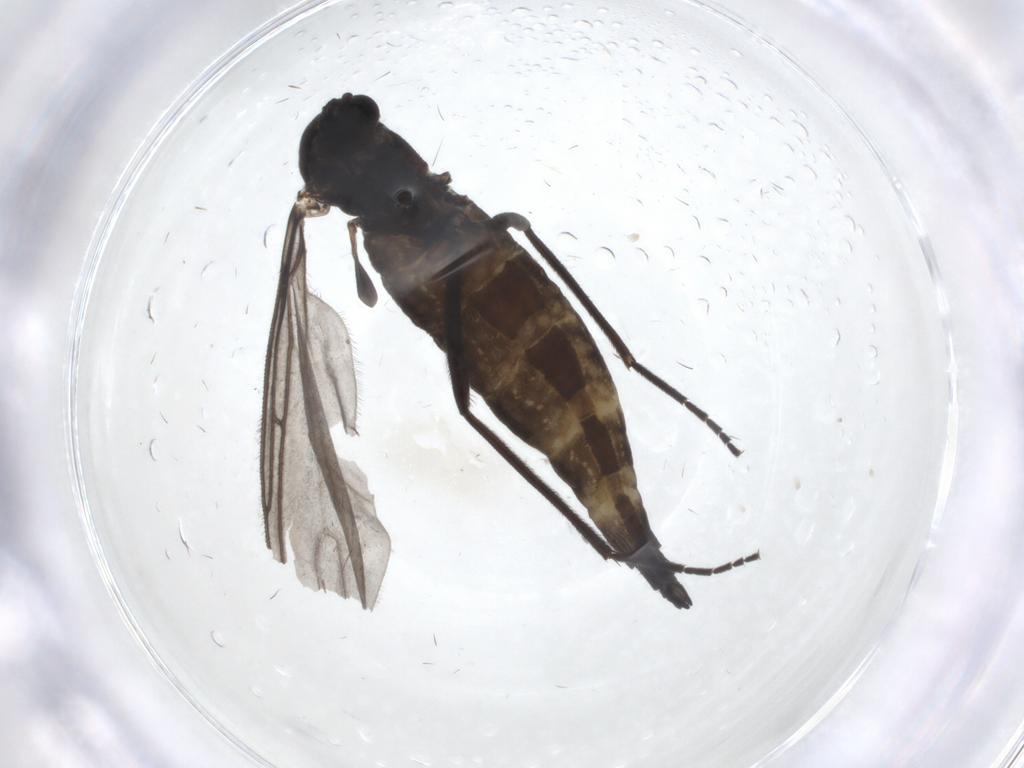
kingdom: Animalia
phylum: Arthropoda
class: Insecta
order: Diptera
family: Sciaridae
